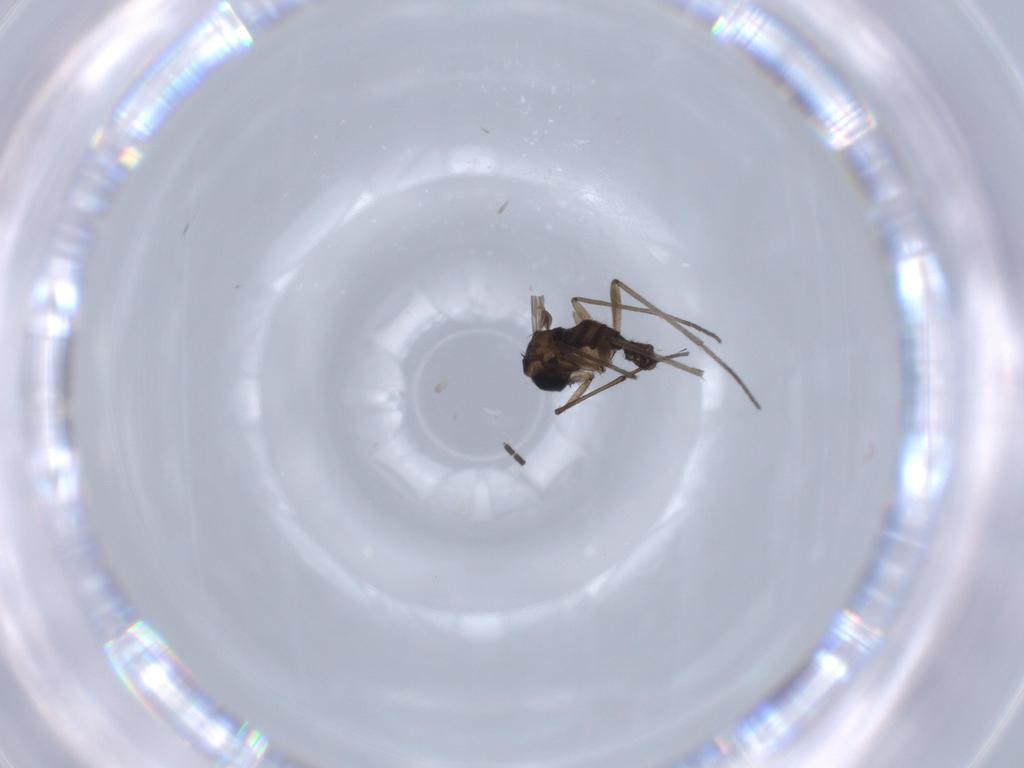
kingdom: Animalia
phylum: Arthropoda
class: Insecta
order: Diptera
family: Sciaridae
